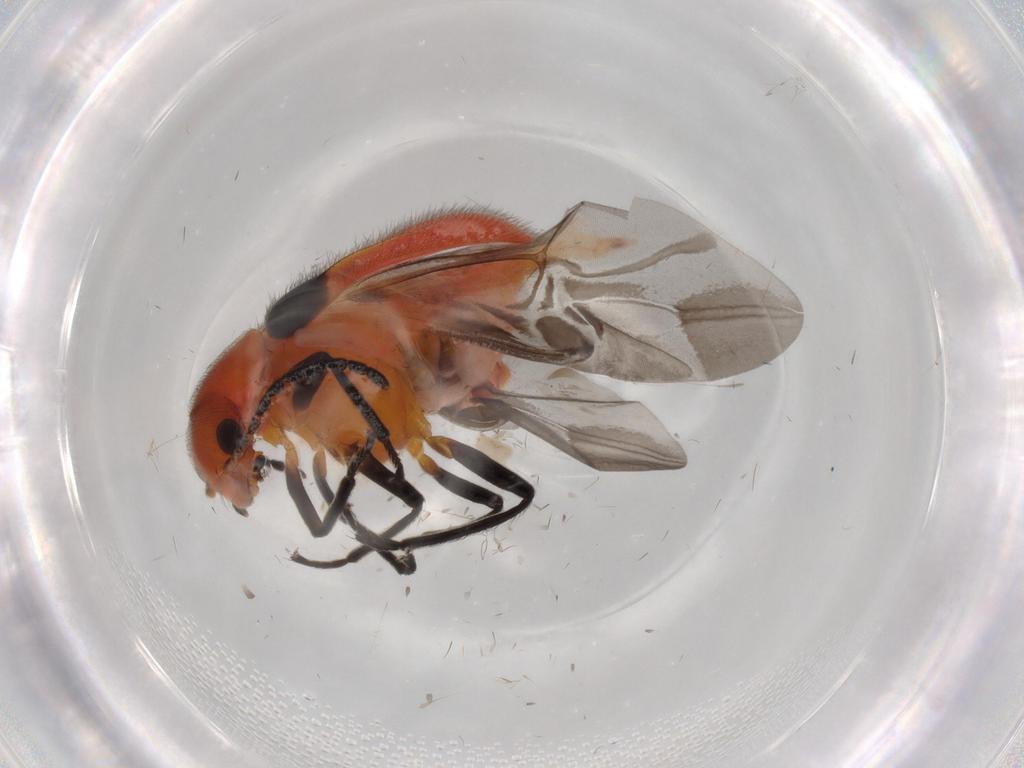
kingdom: Animalia
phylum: Arthropoda
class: Insecta
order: Coleoptera
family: Melyridae
